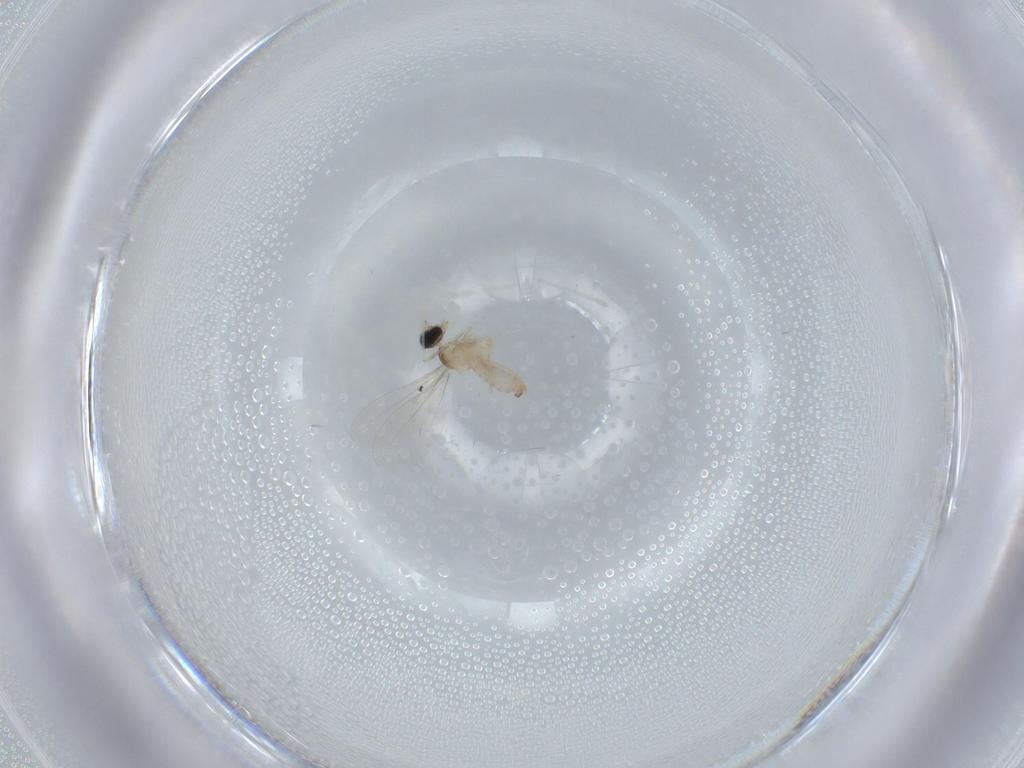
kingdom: Animalia
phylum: Arthropoda
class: Insecta
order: Diptera
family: Cecidomyiidae
